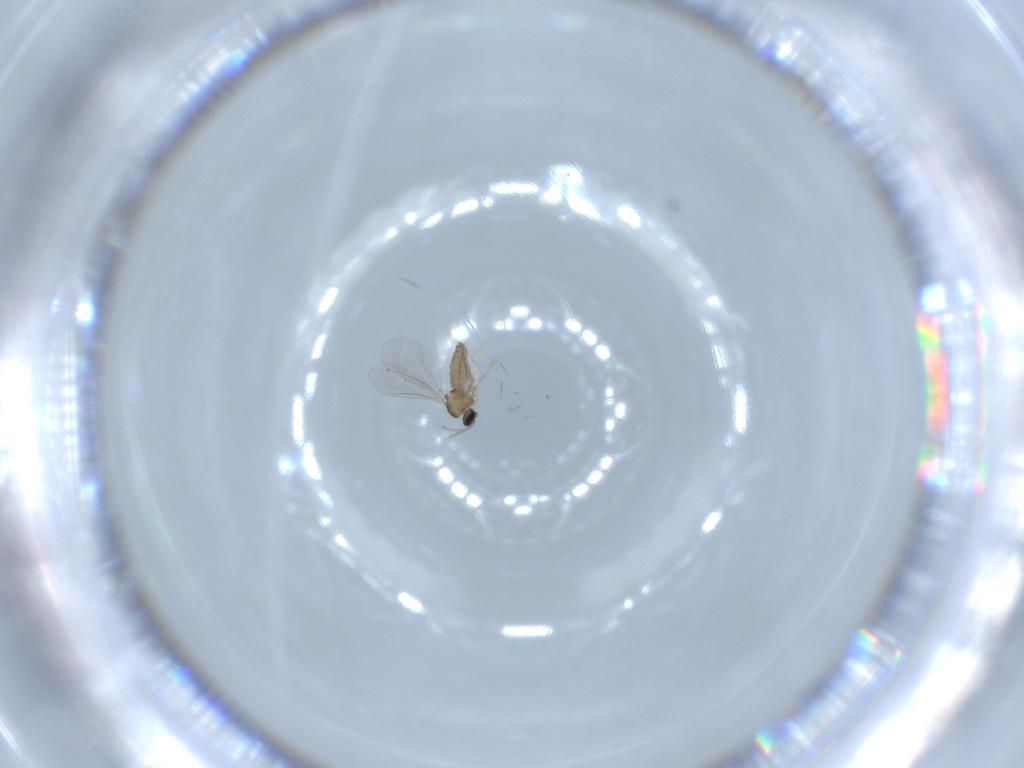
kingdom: Animalia
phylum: Arthropoda
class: Insecta
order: Diptera
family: Cecidomyiidae
